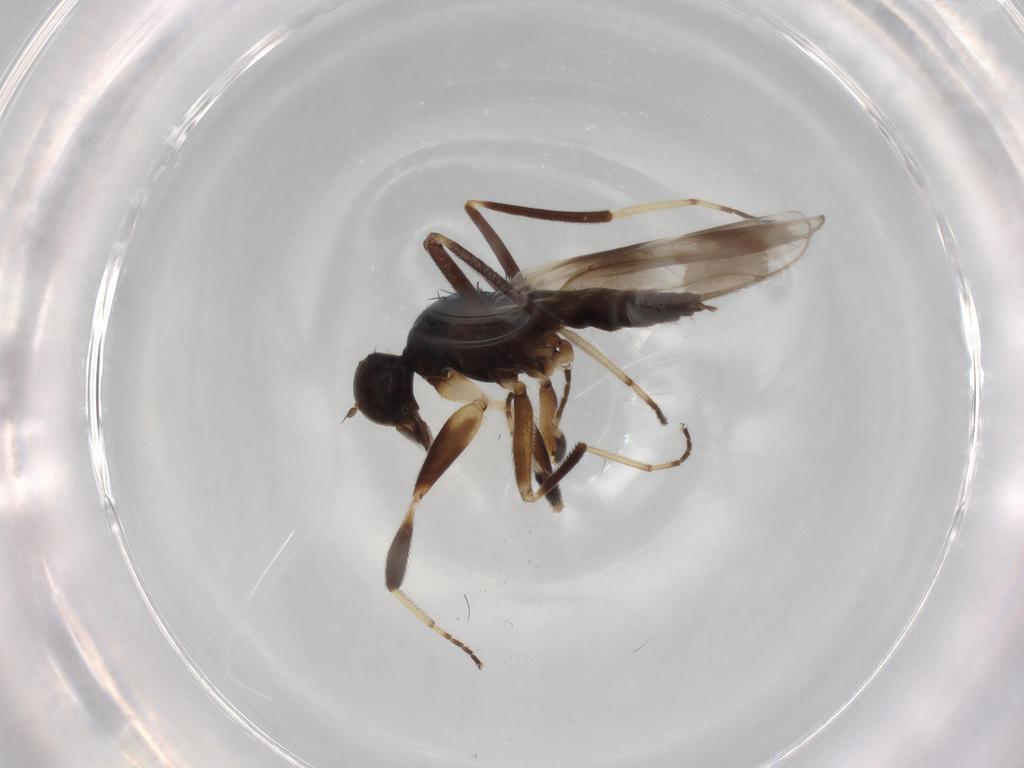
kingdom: Animalia
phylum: Arthropoda
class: Insecta
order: Diptera
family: Hybotidae
